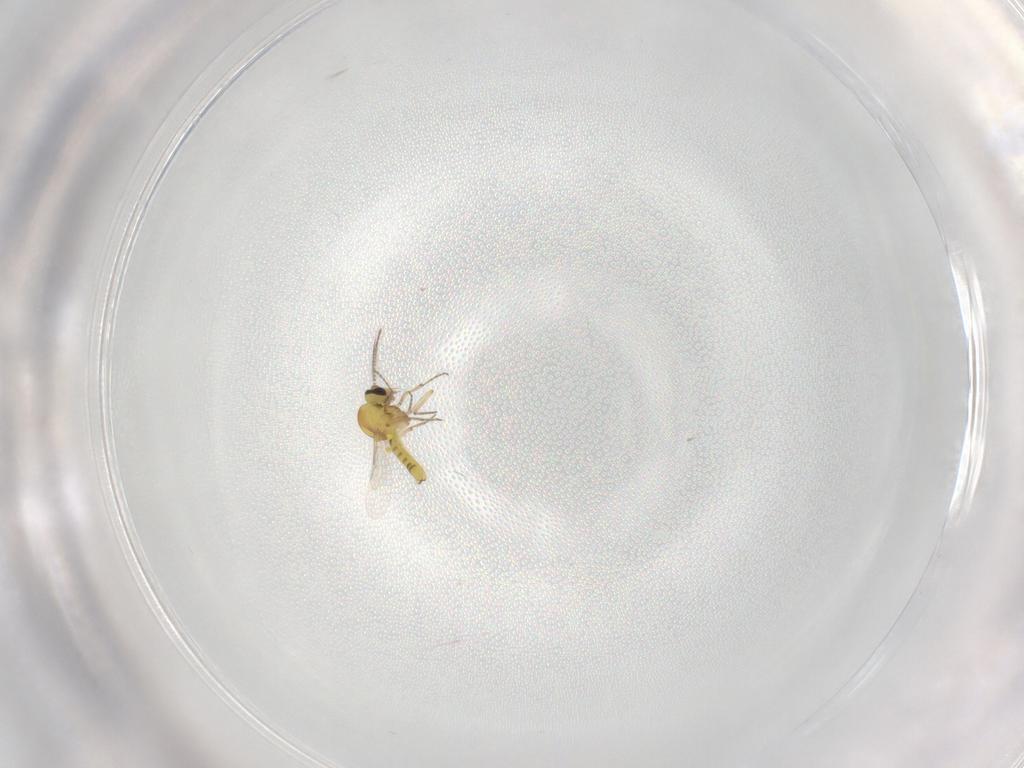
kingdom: Animalia
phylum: Arthropoda
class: Insecta
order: Diptera
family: Ceratopogonidae
